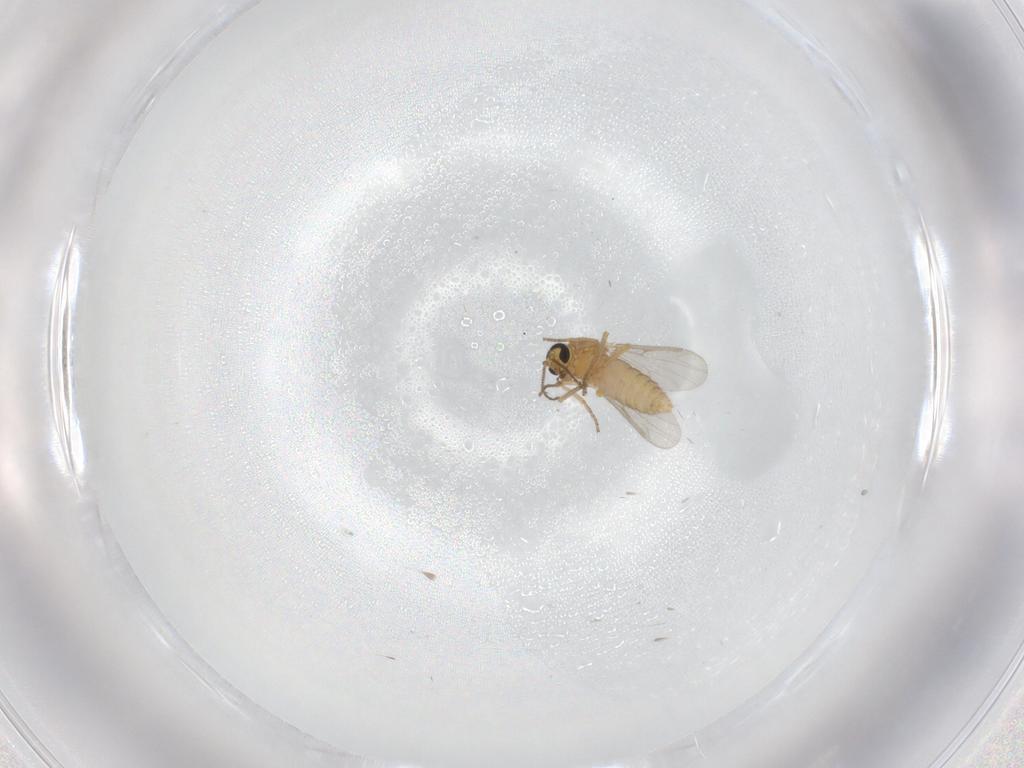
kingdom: Animalia
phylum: Arthropoda
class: Insecta
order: Diptera
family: Ceratopogonidae
